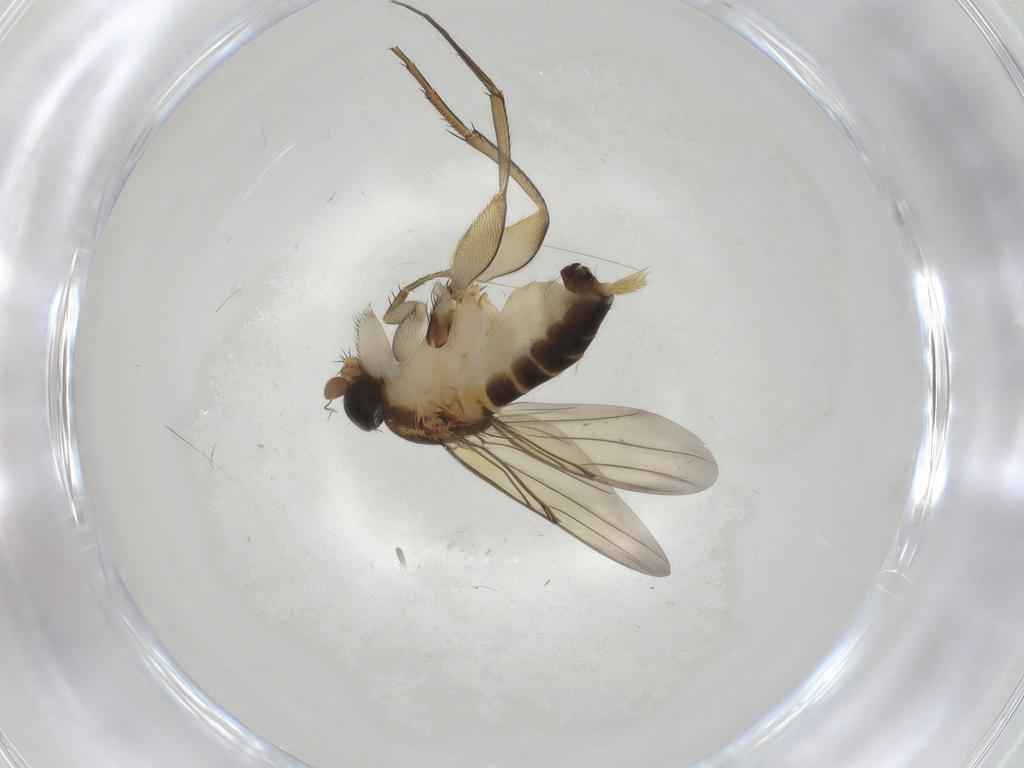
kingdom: Animalia
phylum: Arthropoda
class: Insecta
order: Diptera
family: Phoridae
